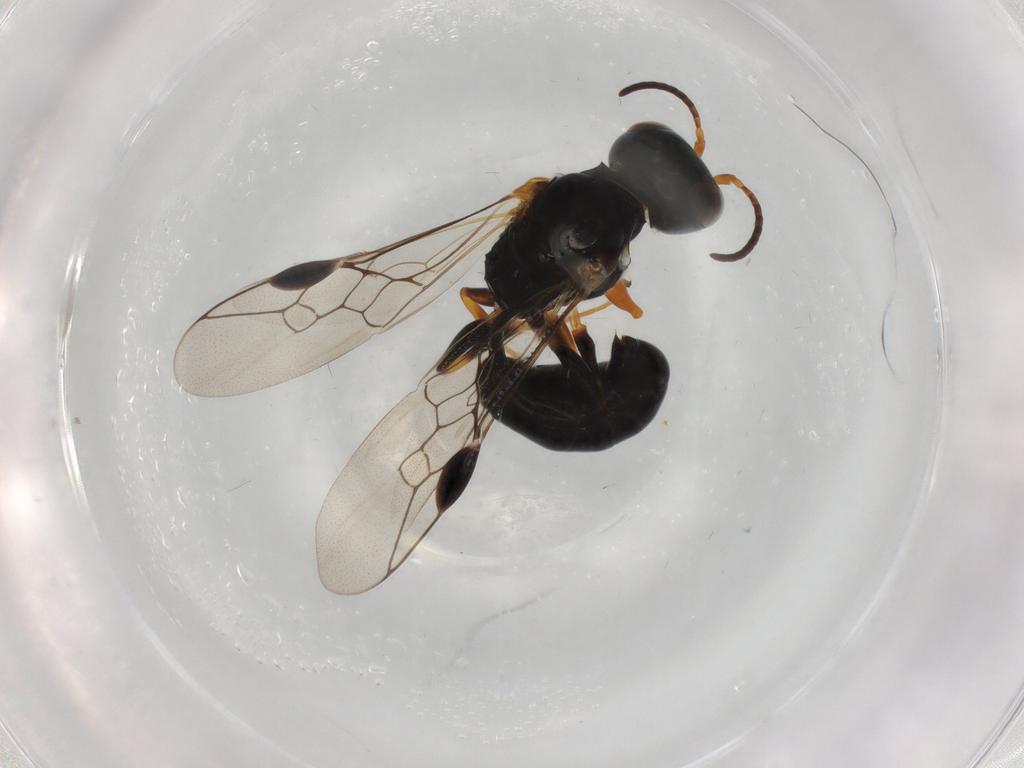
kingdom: Animalia
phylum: Arthropoda
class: Insecta
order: Hymenoptera
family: Pemphredonidae
